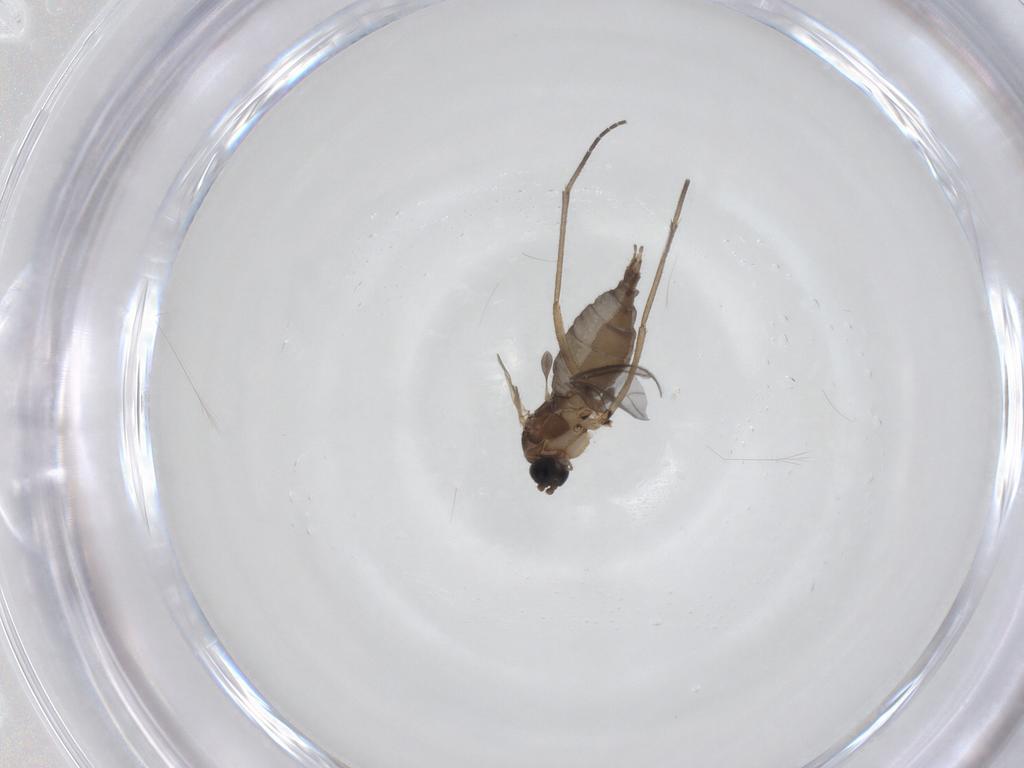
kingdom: Animalia
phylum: Arthropoda
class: Insecta
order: Diptera
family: Sciaridae
